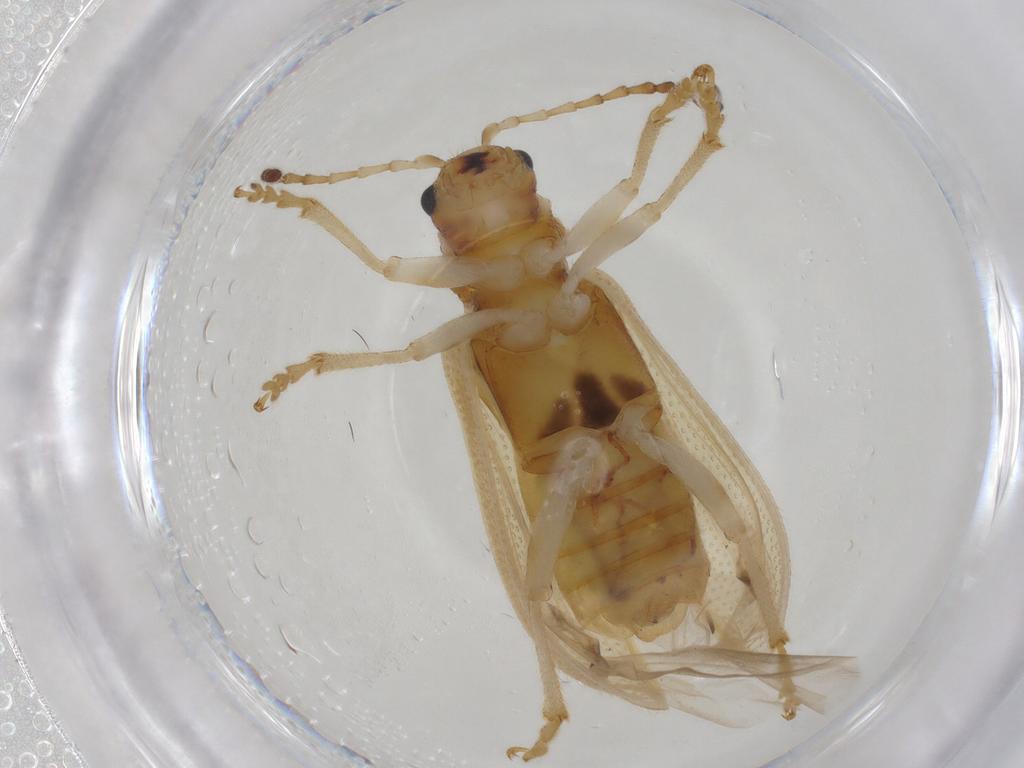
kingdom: Animalia
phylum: Arthropoda
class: Insecta
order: Coleoptera
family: Chrysomelidae
